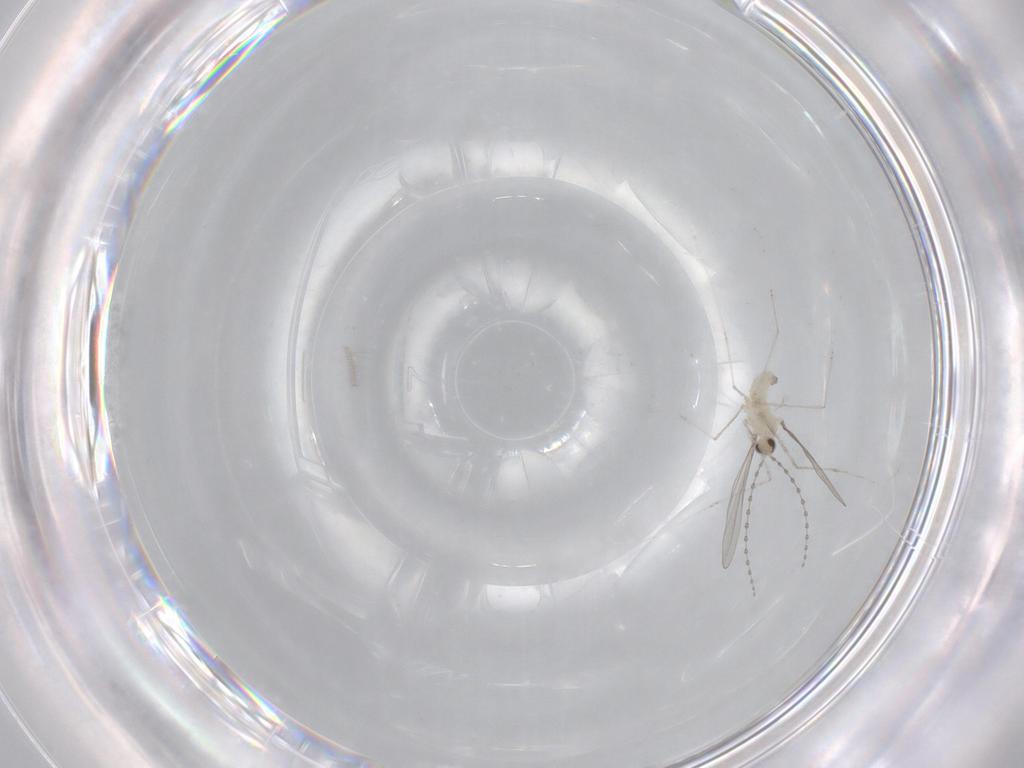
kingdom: Animalia
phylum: Arthropoda
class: Insecta
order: Diptera
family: Cecidomyiidae
